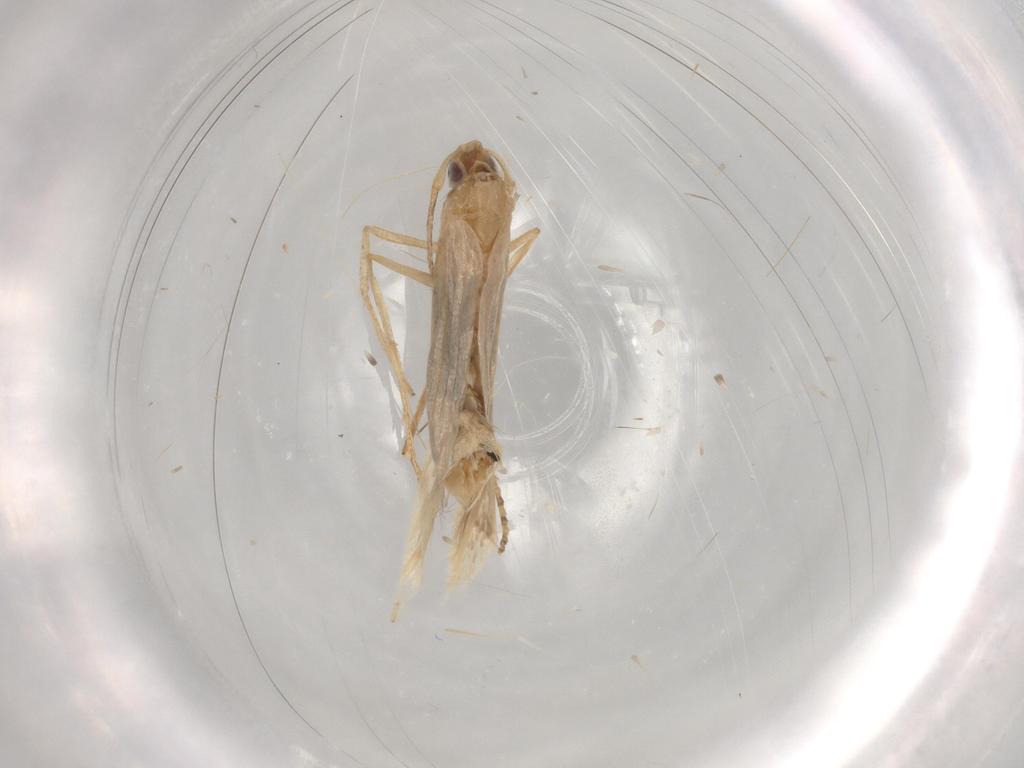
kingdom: Animalia
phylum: Arthropoda
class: Insecta
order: Lepidoptera
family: Cosmopterigidae
